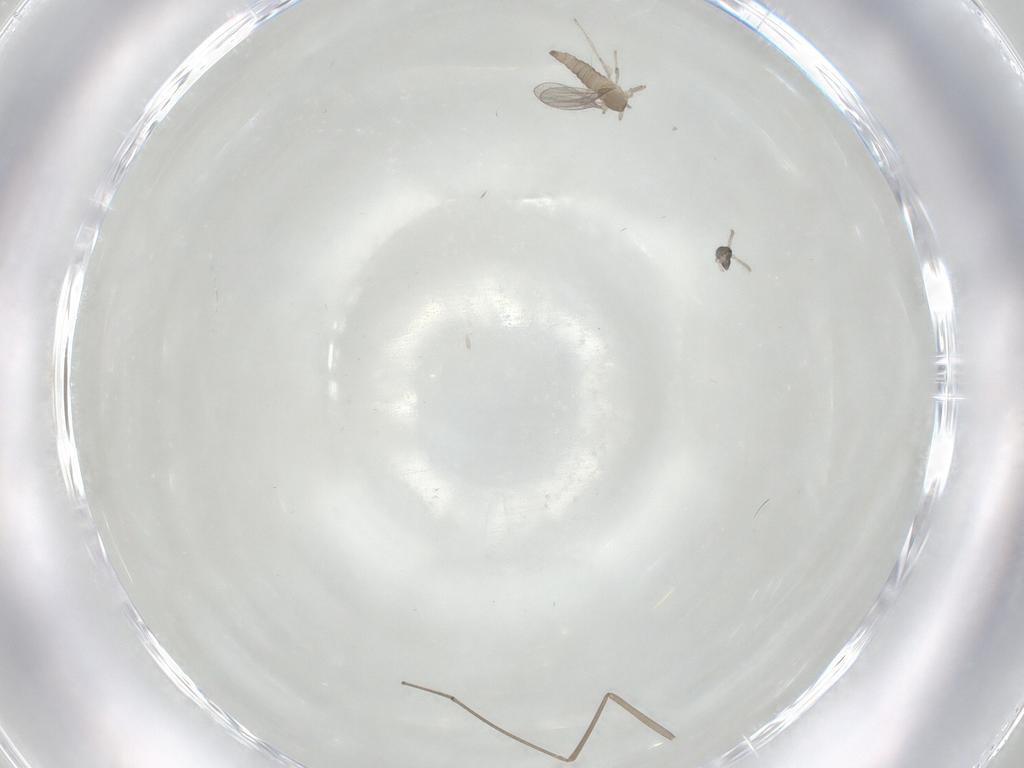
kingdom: Animalia
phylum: Arthropoda
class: Insecta
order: Diptera
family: Cecidomyiidae
